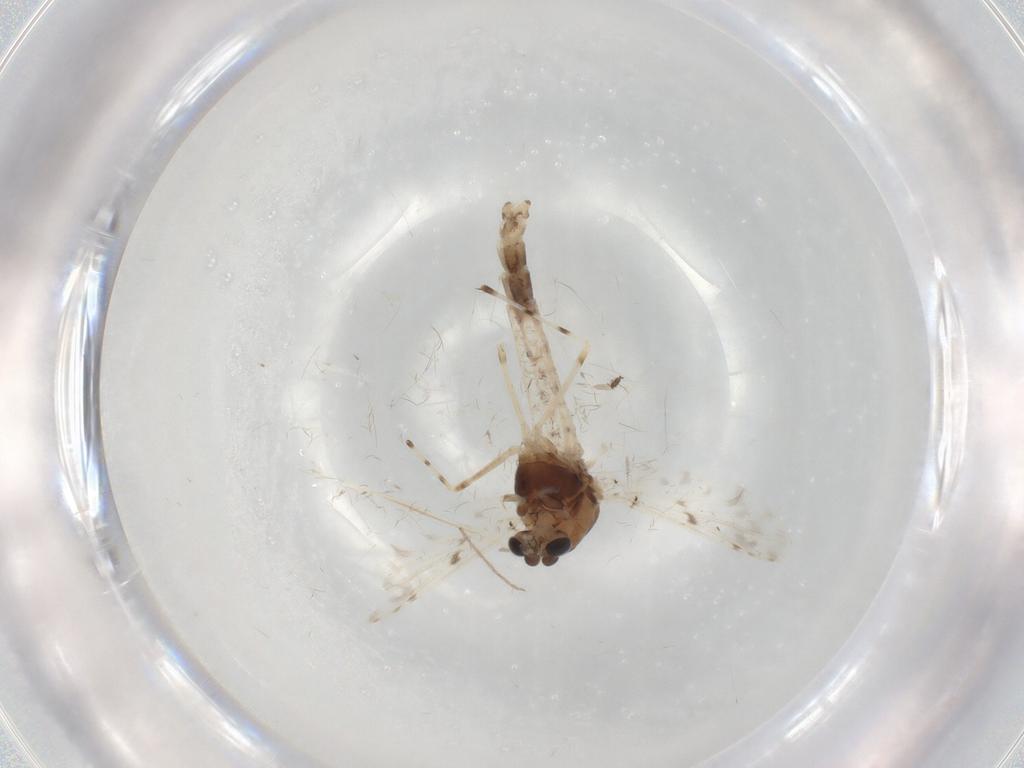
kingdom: Animalia
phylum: Arthropoda
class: Insecta
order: Diptera
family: Chironomidae
